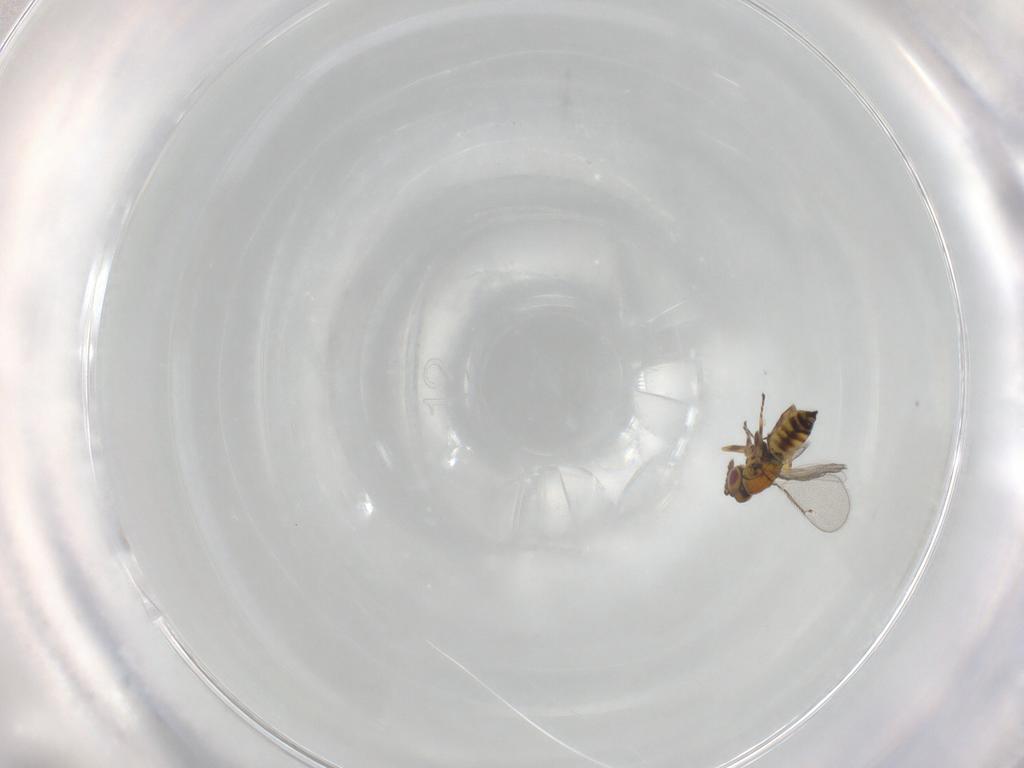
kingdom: Animalia
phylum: Arthropoda
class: Insecta
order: Hymenoptera
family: Eulophidae
